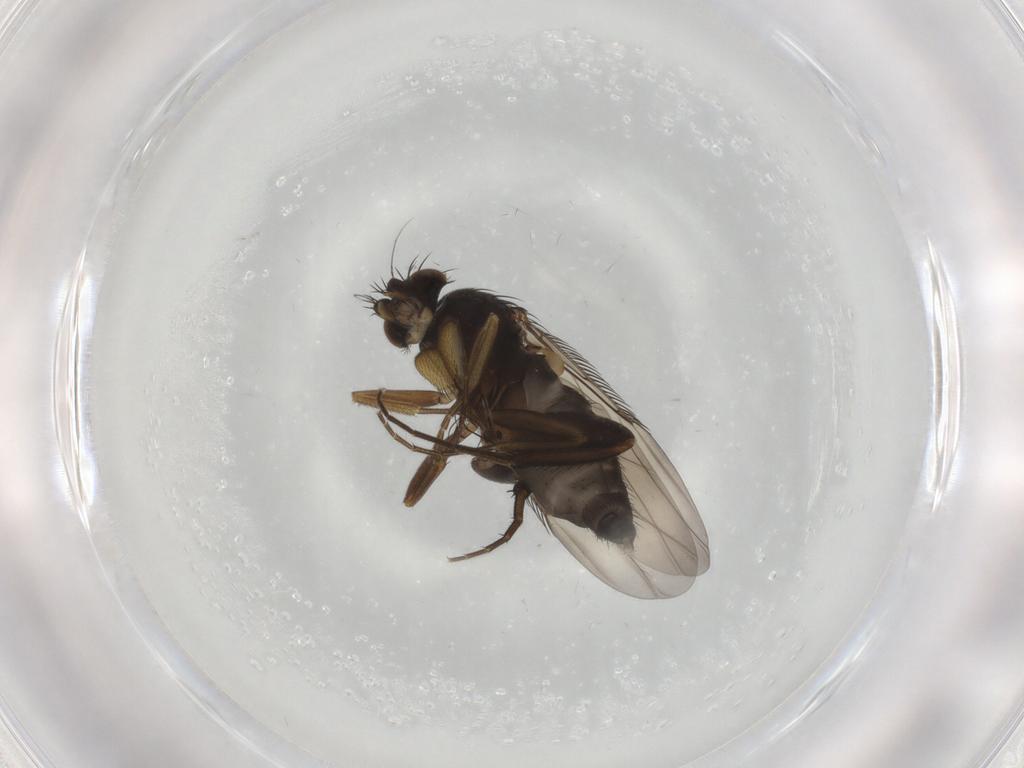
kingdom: Animalia
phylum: Arthropoda
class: Insecta
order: Diptera
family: Phoridae
